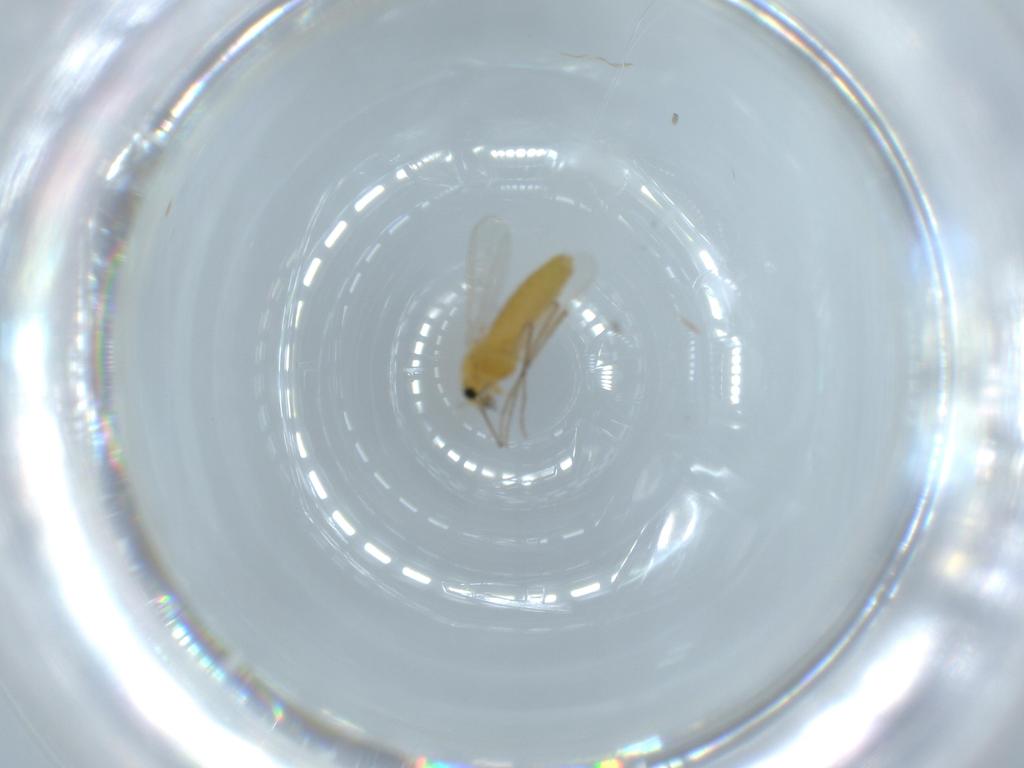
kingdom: Animalia
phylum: Arthropoda
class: Insecta
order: Diptera
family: Chironomidae
